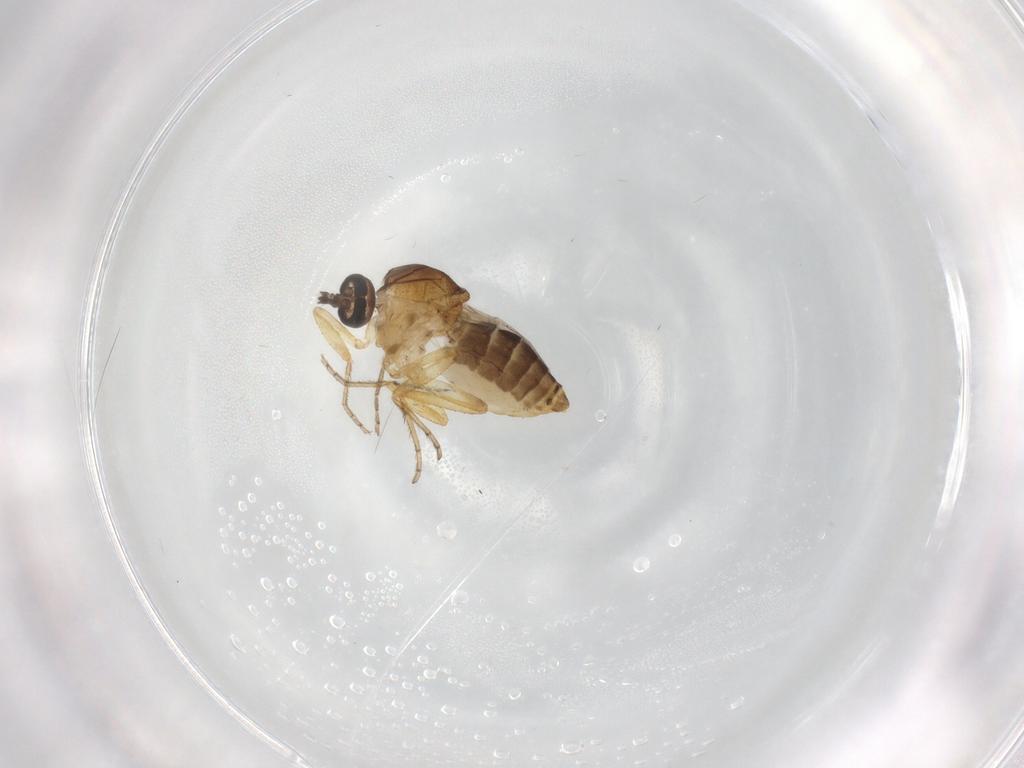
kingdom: Animalia
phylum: Arthropoda
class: Insecta
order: Diptera
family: Ceratopogonidae
